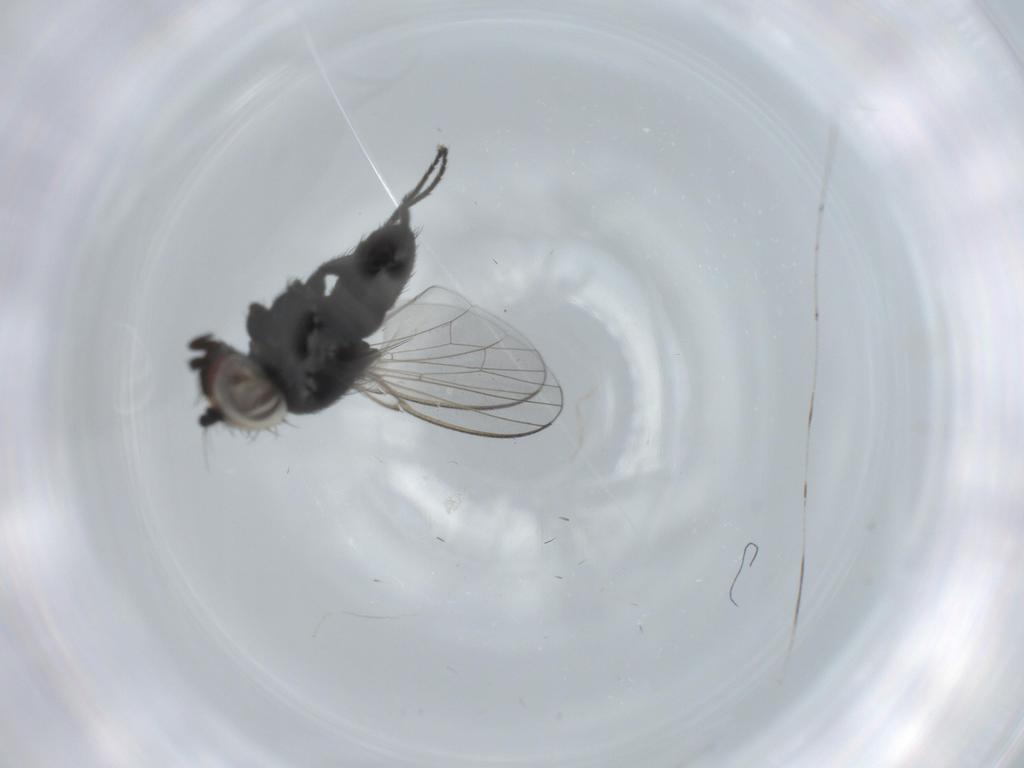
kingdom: Animalia
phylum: Arthropoda
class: Insecta
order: Diptera
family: Milichiidae
